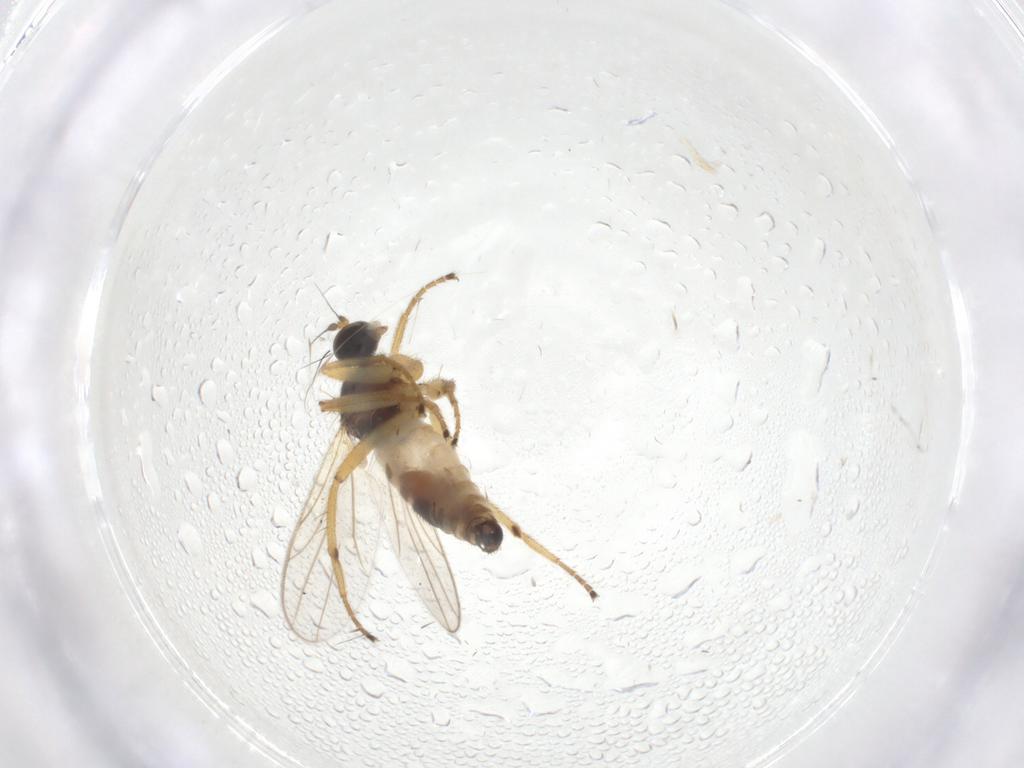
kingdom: Animalia
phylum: Arthropoda
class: Insecta
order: Diptera
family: Hybotidae
